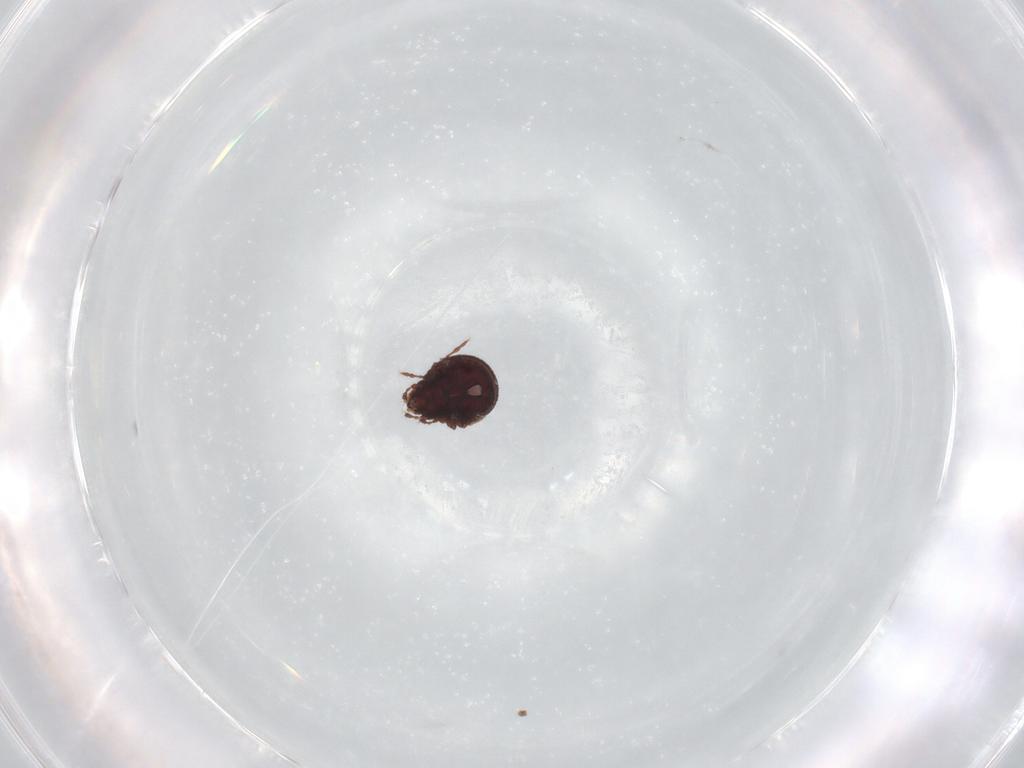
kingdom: Animalia
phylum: Arthropoda
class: Arachnida
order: Sarcoptiformes
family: Cepheusidae
